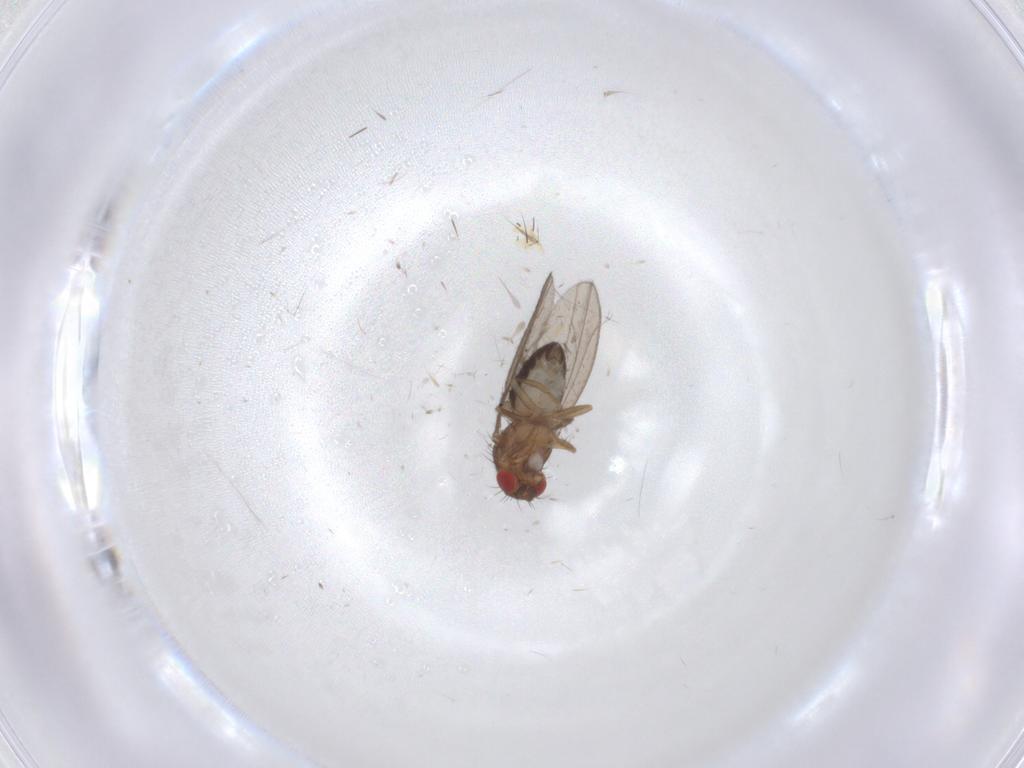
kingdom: Animalia
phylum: Arthropoda
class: Insecta
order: Diptera
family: Drosophilidae
